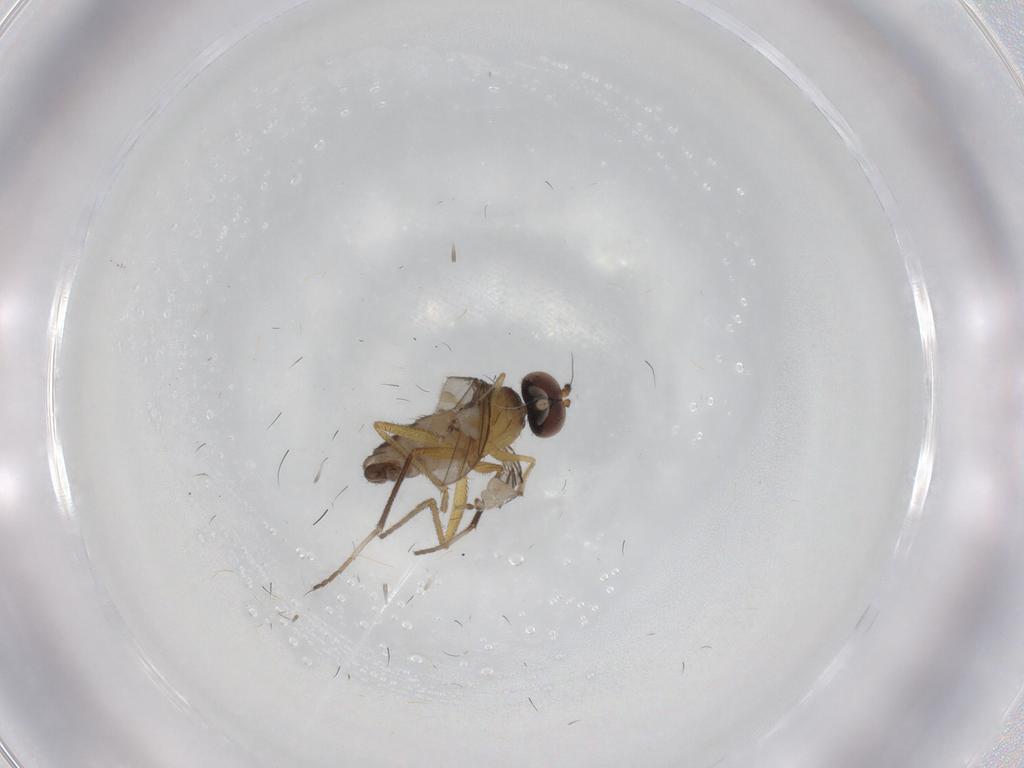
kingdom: Animalia
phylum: Arthropoda
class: Insecta
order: Diptera
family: Dolichopodidae
